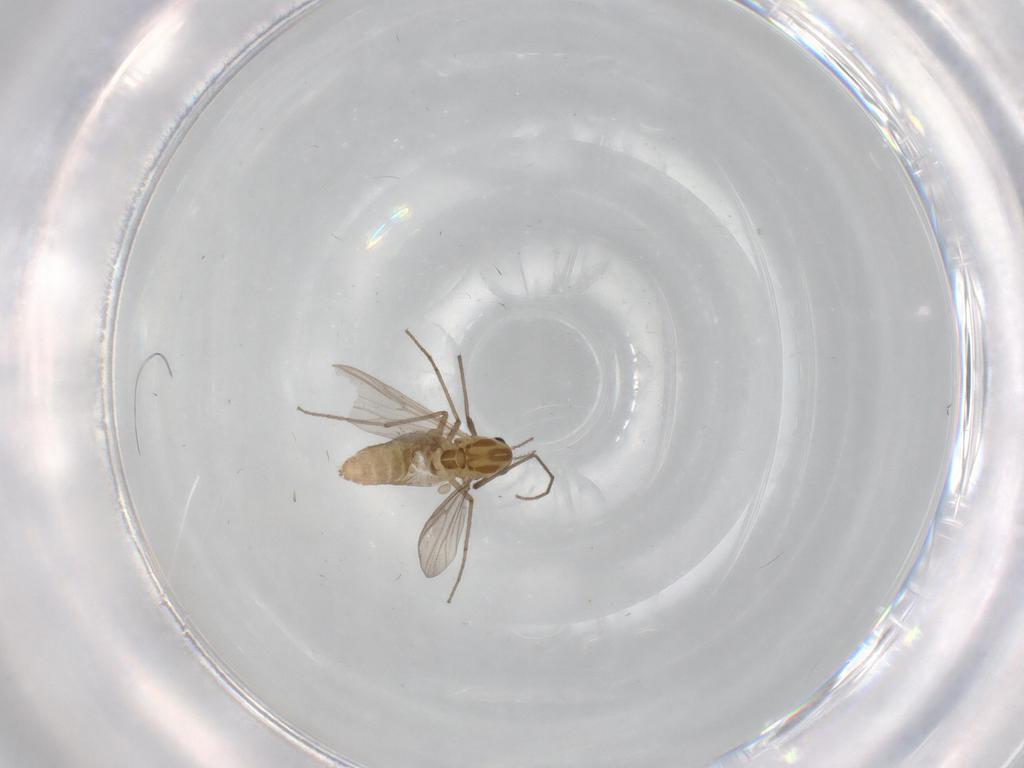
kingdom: Animalia
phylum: Arthropoda
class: Insecta
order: Diptera
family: Chironomidae
